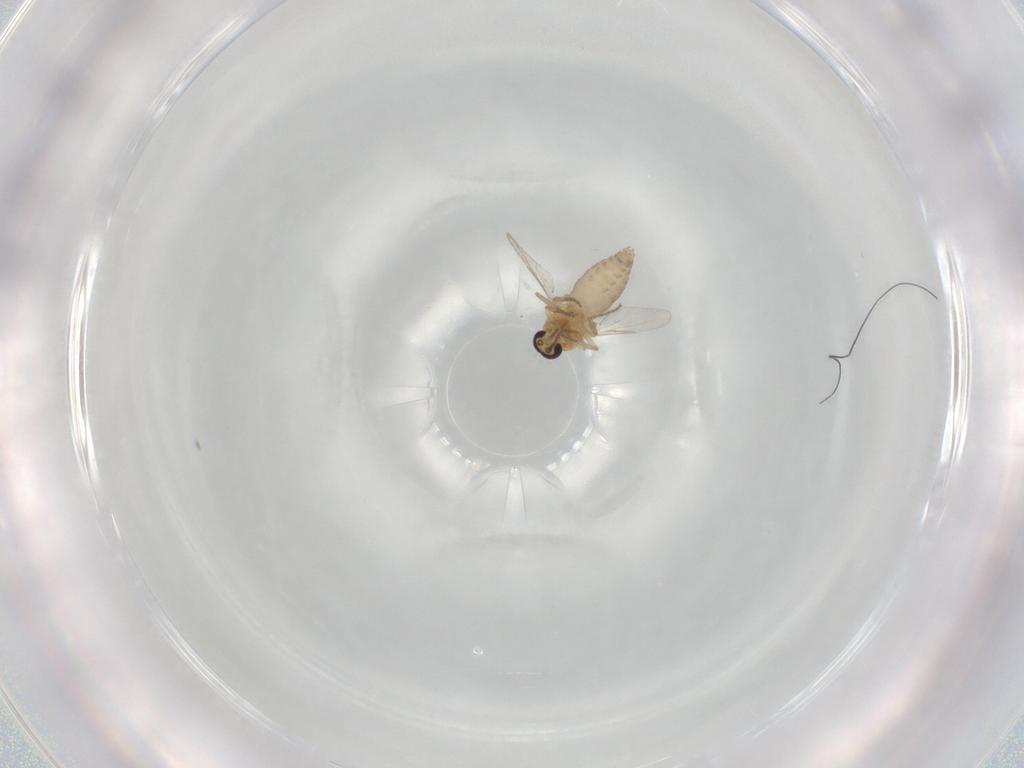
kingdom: Animalia
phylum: Arthropoda
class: Insecta
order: Diptera
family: Ceratopogonidae
